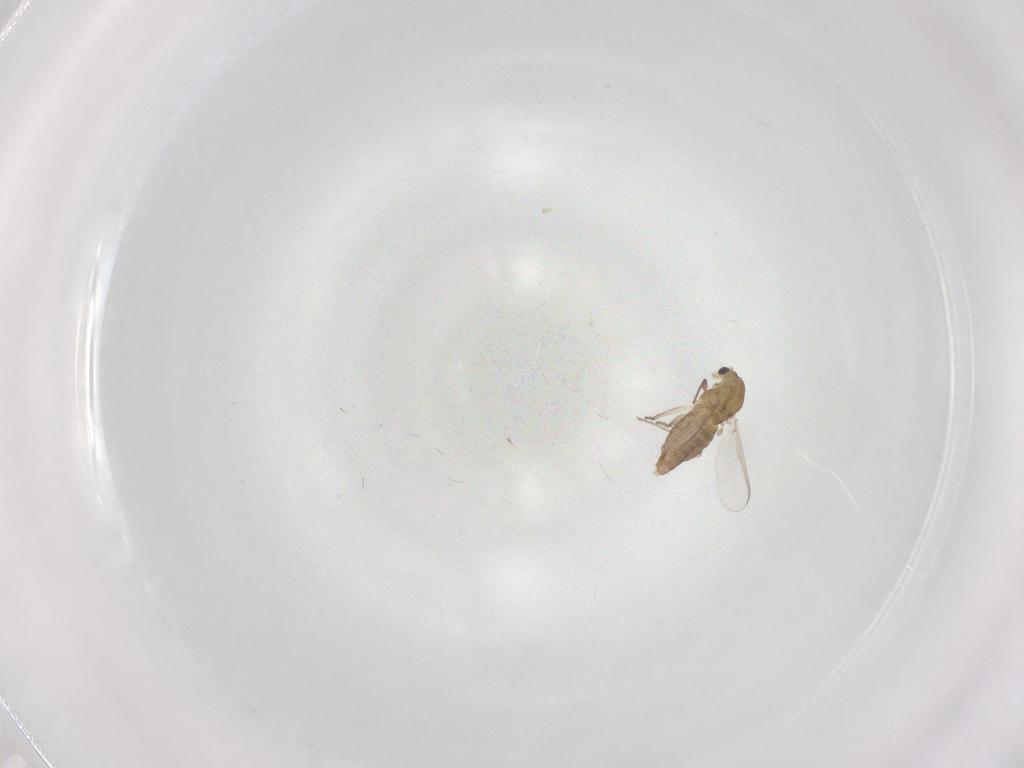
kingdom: Animalia
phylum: Arthropoda
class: Insecta
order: Diptera
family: Chironomidae
